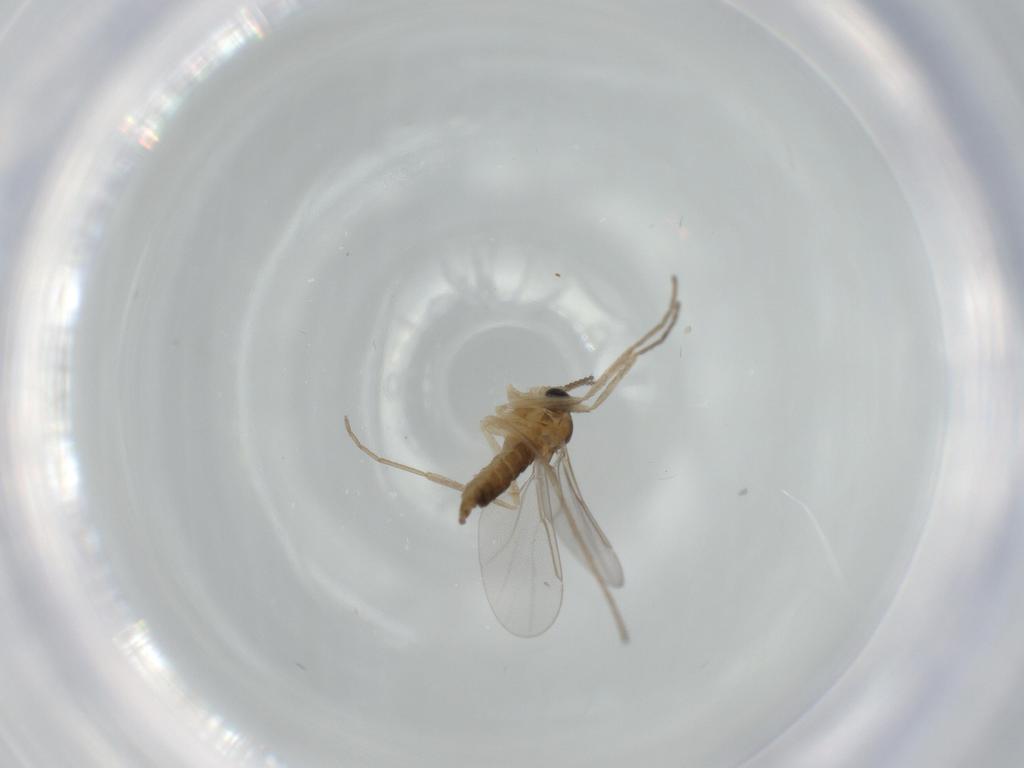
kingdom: Animalia
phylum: Arthropoda
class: Insecta
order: Diptera
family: Cecidomyiidae
